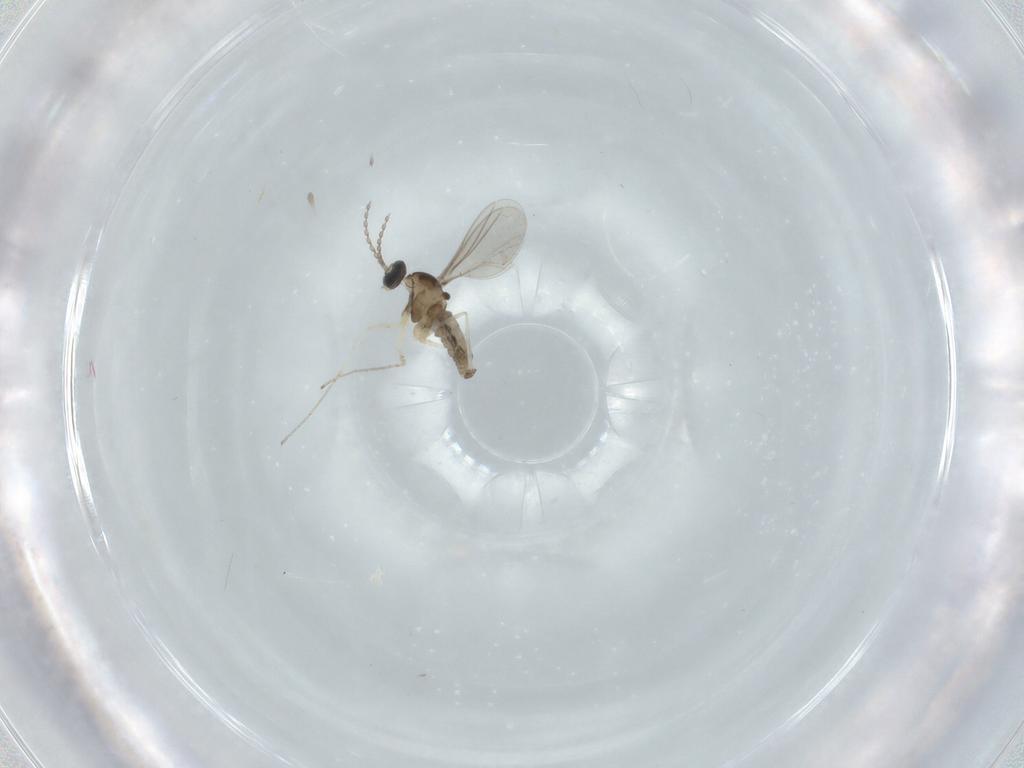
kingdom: Animalia
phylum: Arthropoda
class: Insecta
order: Diptera
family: Cecidomyiidae
